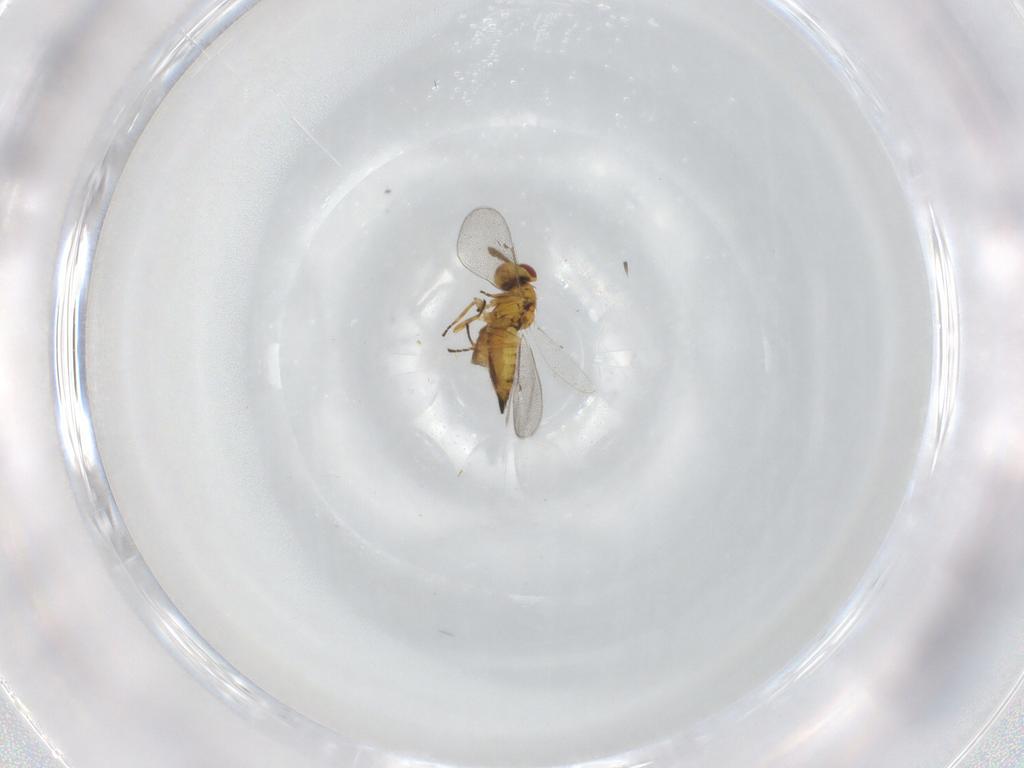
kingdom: Animalia
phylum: Arthropoda
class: Insecta
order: Hymenoptera
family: Eulophidae
